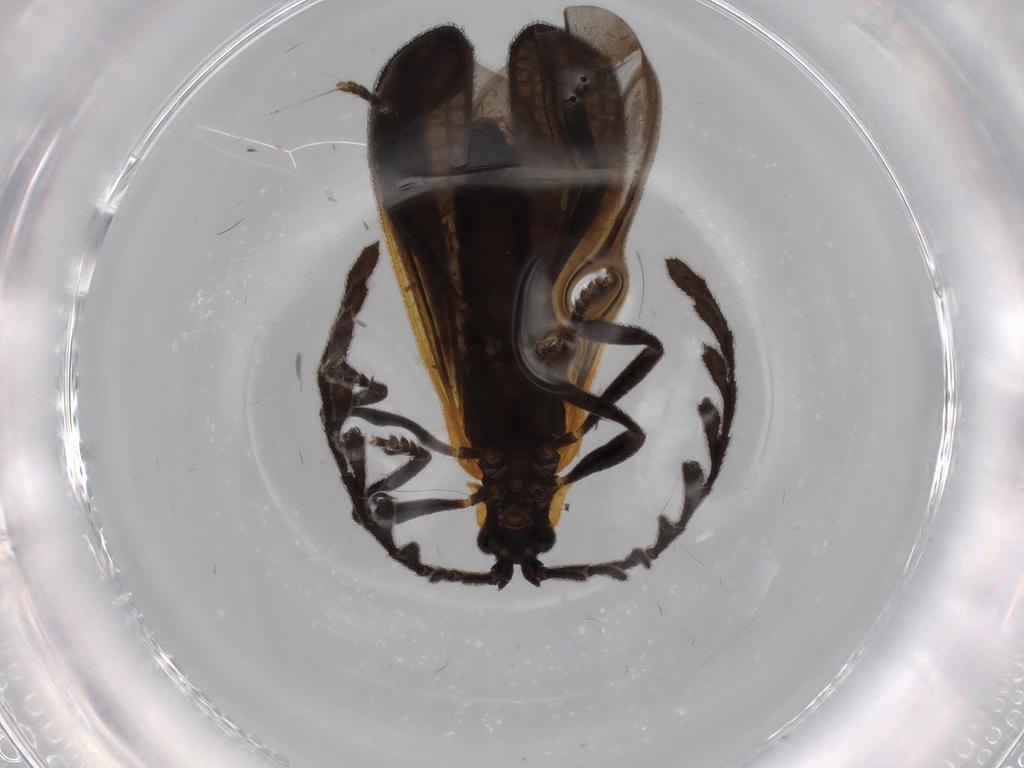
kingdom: Animalia
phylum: Arthropoda
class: Insecta
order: Coleoptera
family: Lycidae
